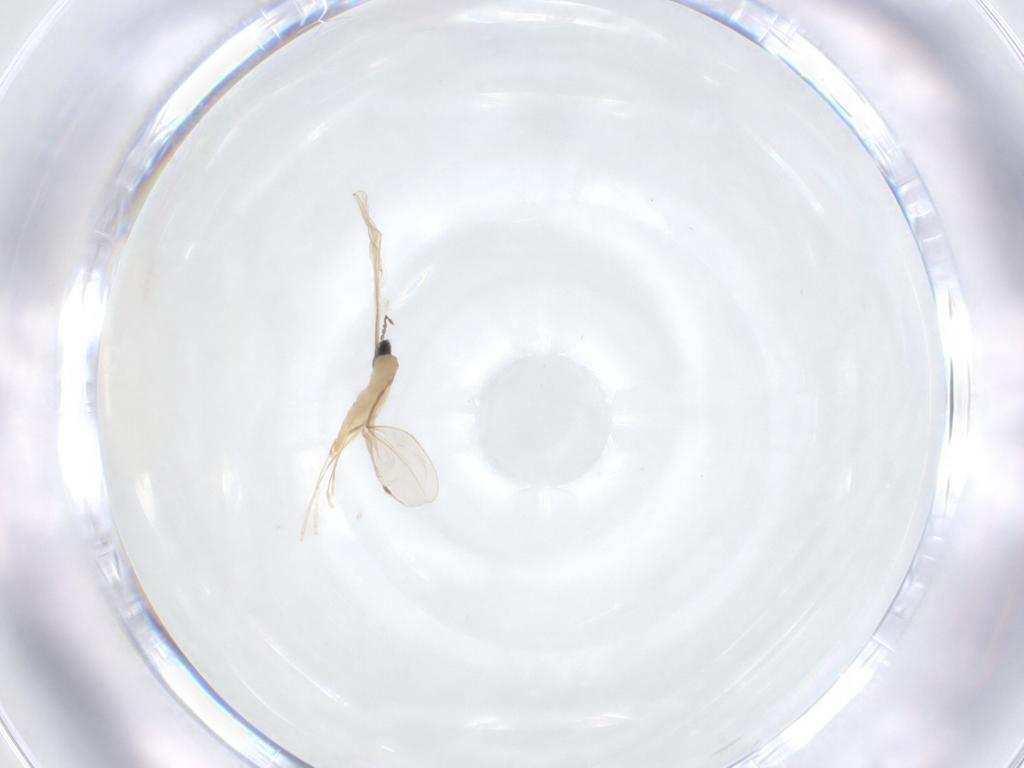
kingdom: Animalia
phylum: Arthropoda
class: Insecta
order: Diptera
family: Cecidomyiidae
